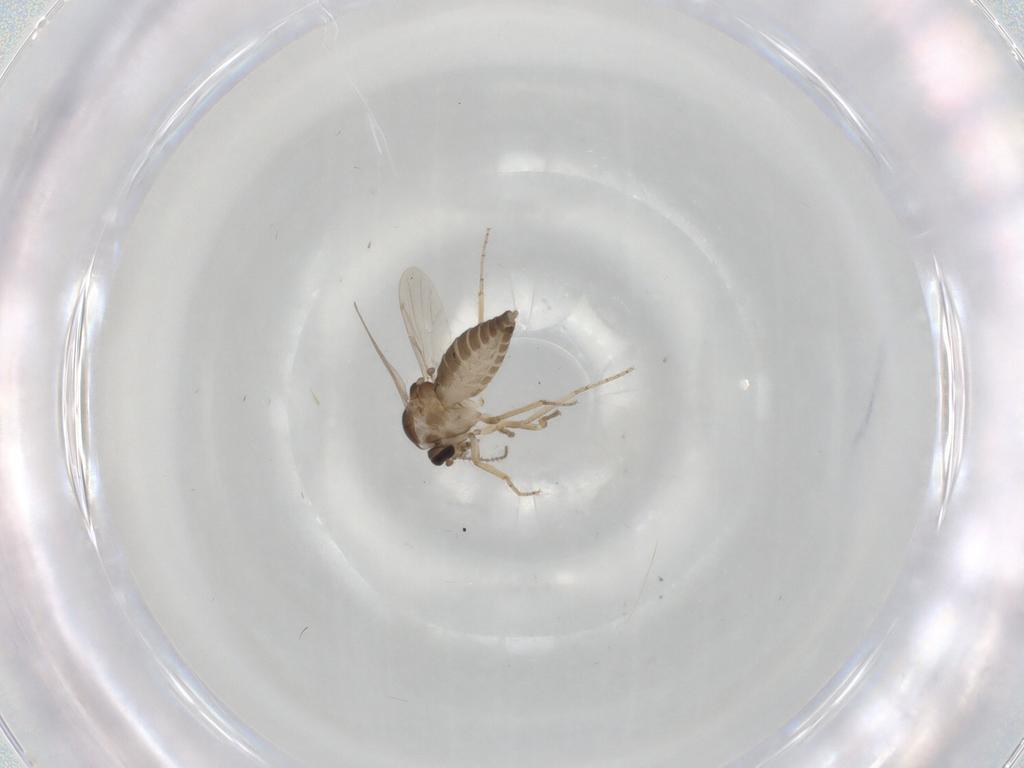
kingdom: Animalia
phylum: Arthropoda
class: Insecta
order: Diptera
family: Ceratopogonidae
